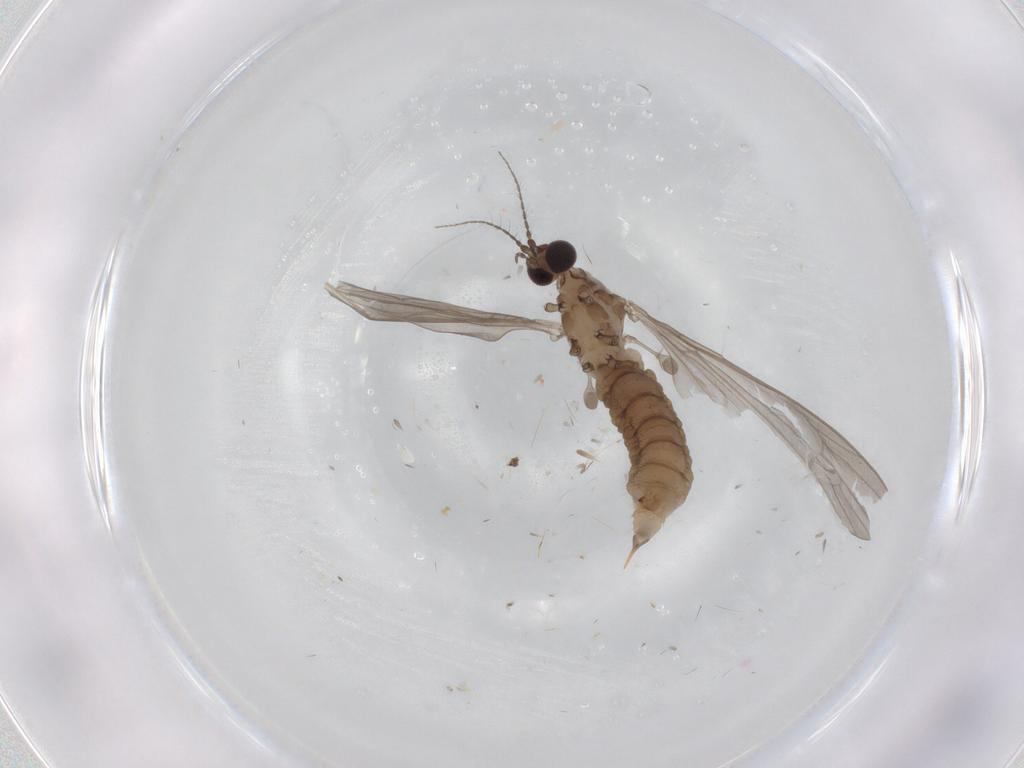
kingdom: Animalia
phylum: Arthropoda
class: Insecta
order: Diptera
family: Limoniidae
